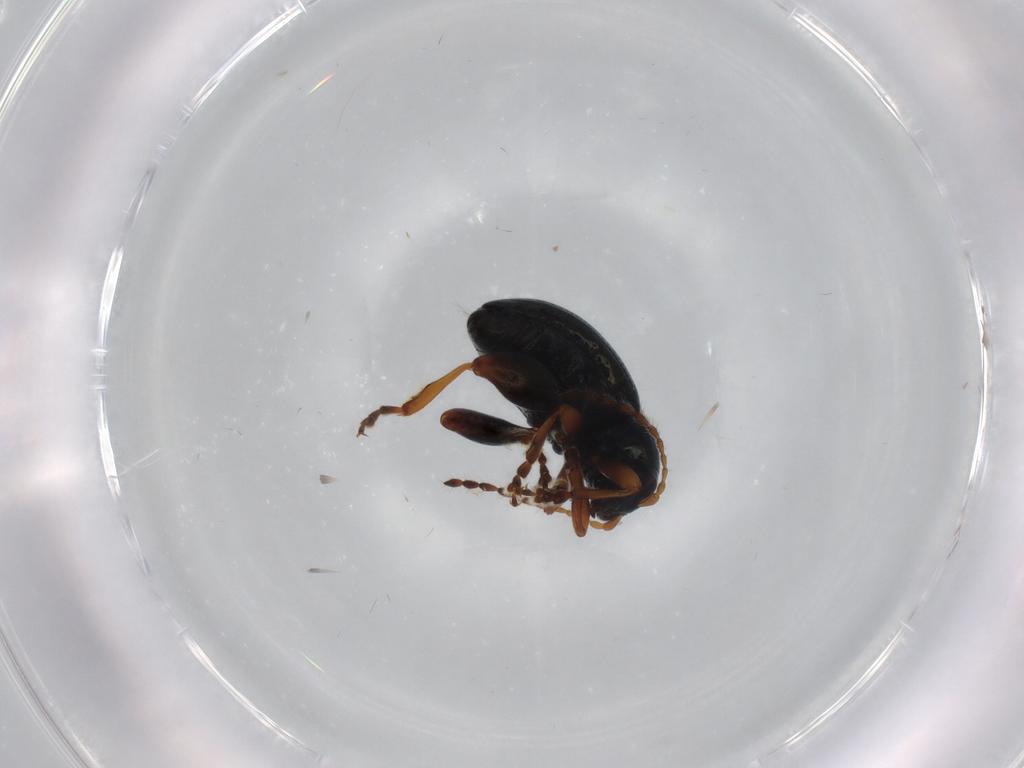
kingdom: Animalia
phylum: Arthropoda
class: Insecta
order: Coleoptera
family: Chrysomelidae
